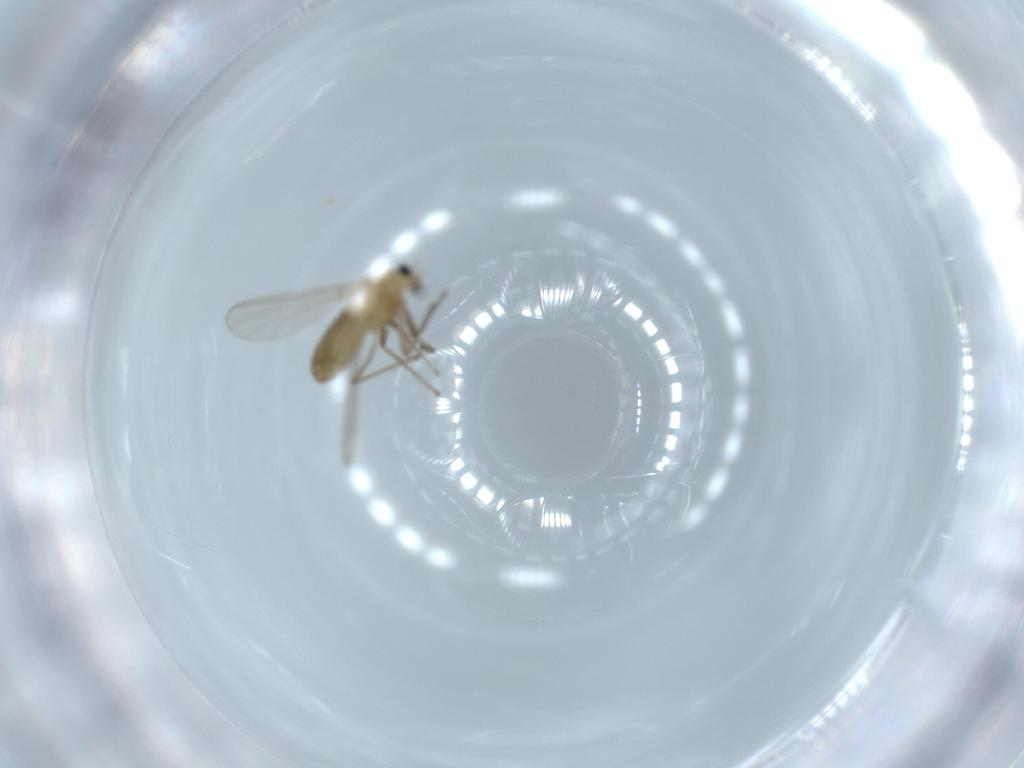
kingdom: Animalia
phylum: Arthropoda
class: Insecta
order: Diptera
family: Chironomidae
